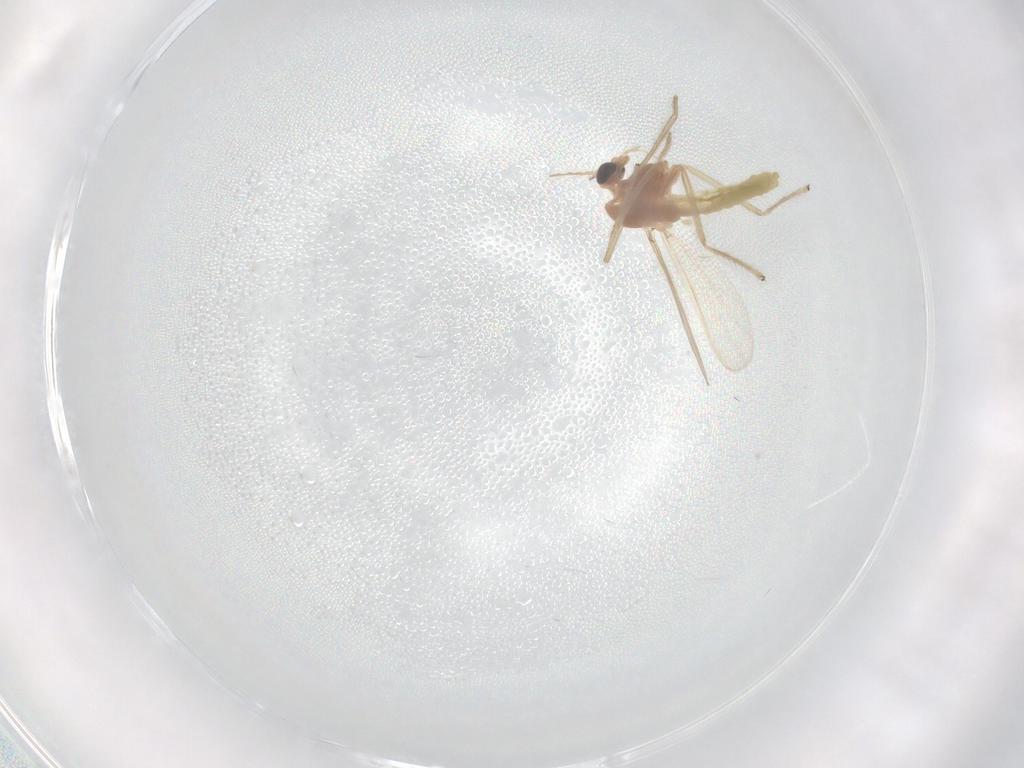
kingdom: Animalia
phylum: Arthropoda
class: Insecta
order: Diptera
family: Chironomidae
